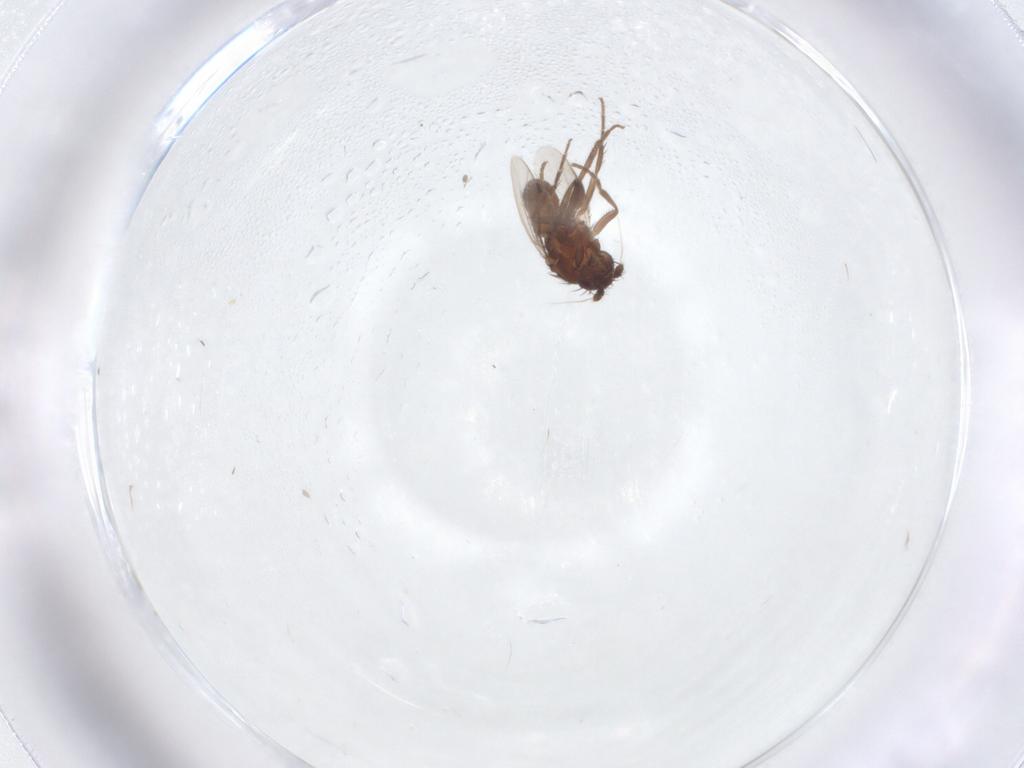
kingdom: Animalia
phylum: Arthropoda
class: Insecta
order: Diptera
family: Sphaeroceridae
